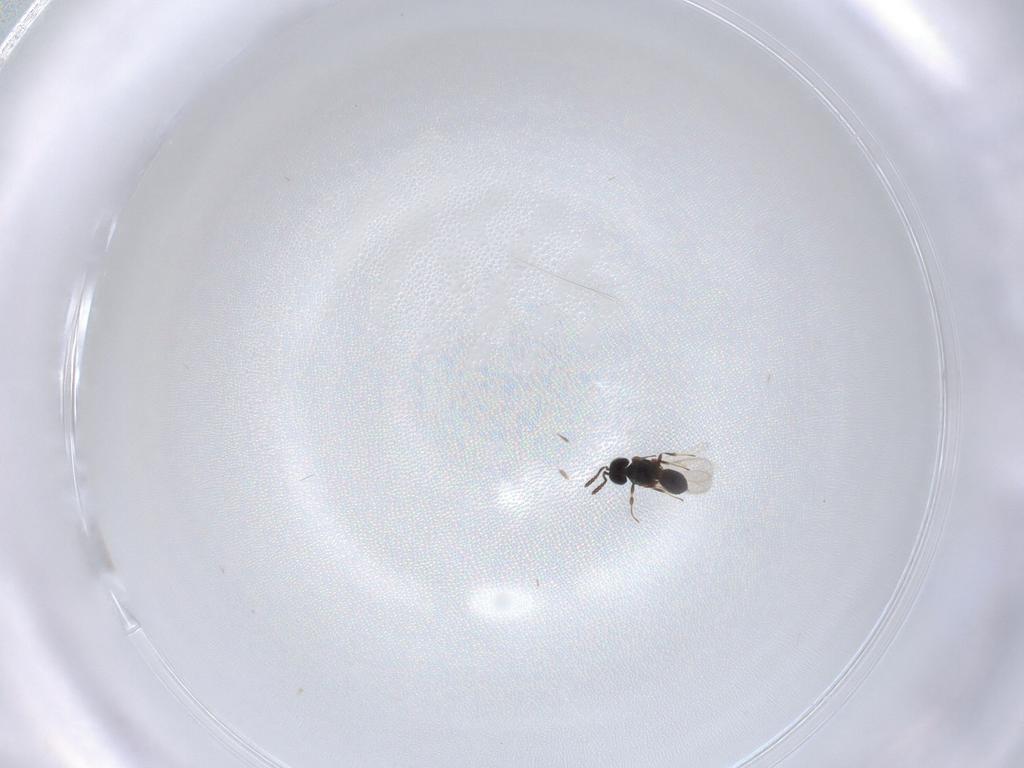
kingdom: Animalia
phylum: Arthropoda
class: Insecta
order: Hymenoptera
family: Scelionidae
